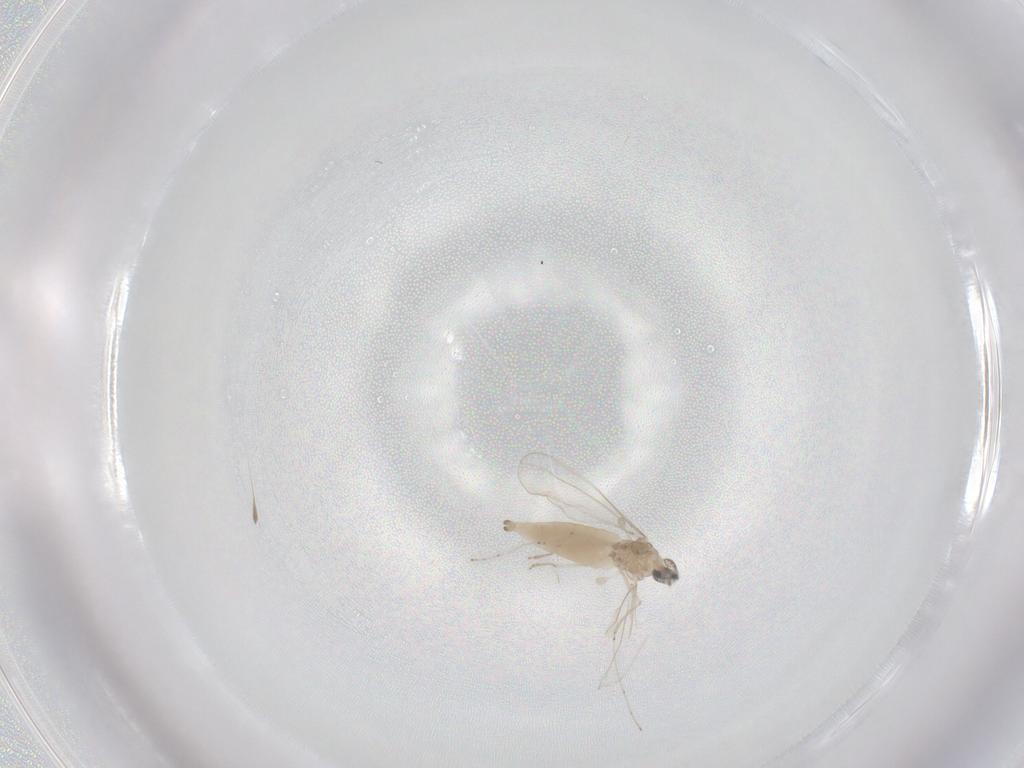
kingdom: Animalia
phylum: Arthropoda
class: Insecta
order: Diptera
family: Cecidomyiidae
